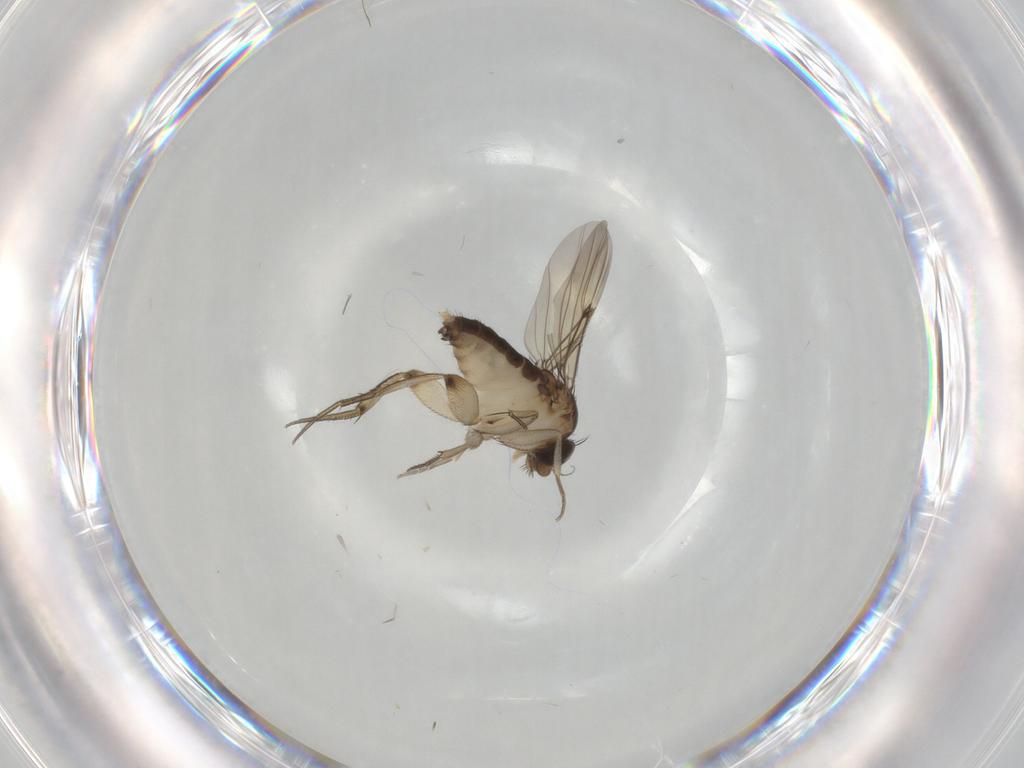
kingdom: Animalia
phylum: Arthropoda
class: Insecta
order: Diptera
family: Phoridae
